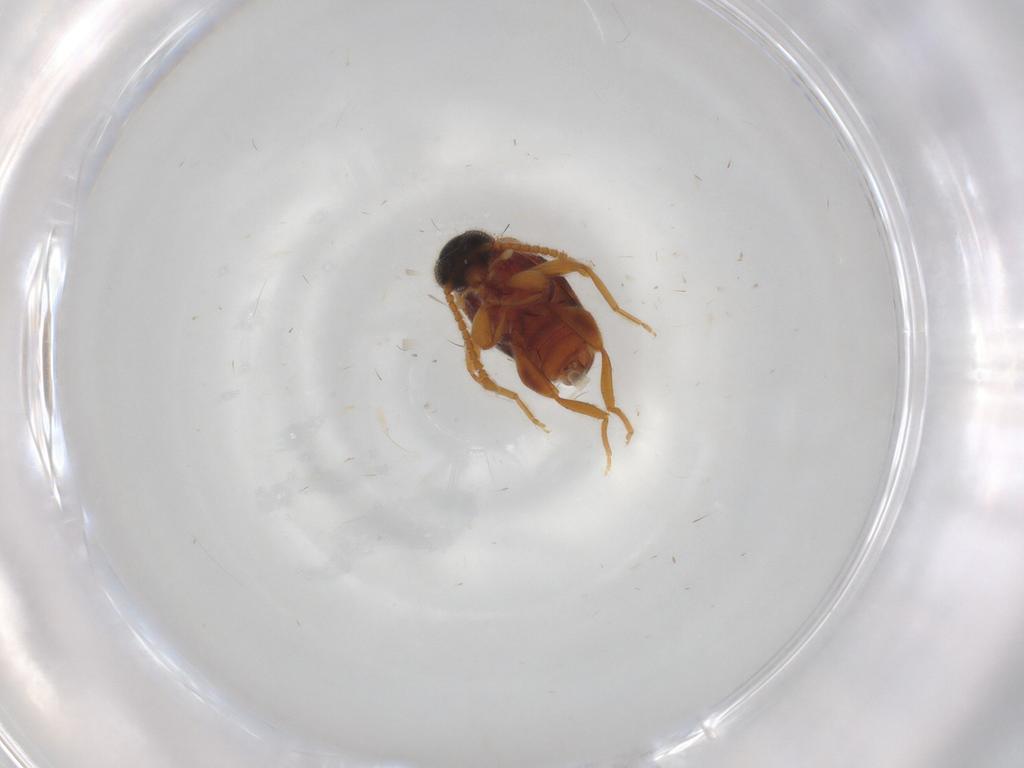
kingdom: Animalia
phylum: Arthropoda
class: Insecta
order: Coleoptera
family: Aderidae
